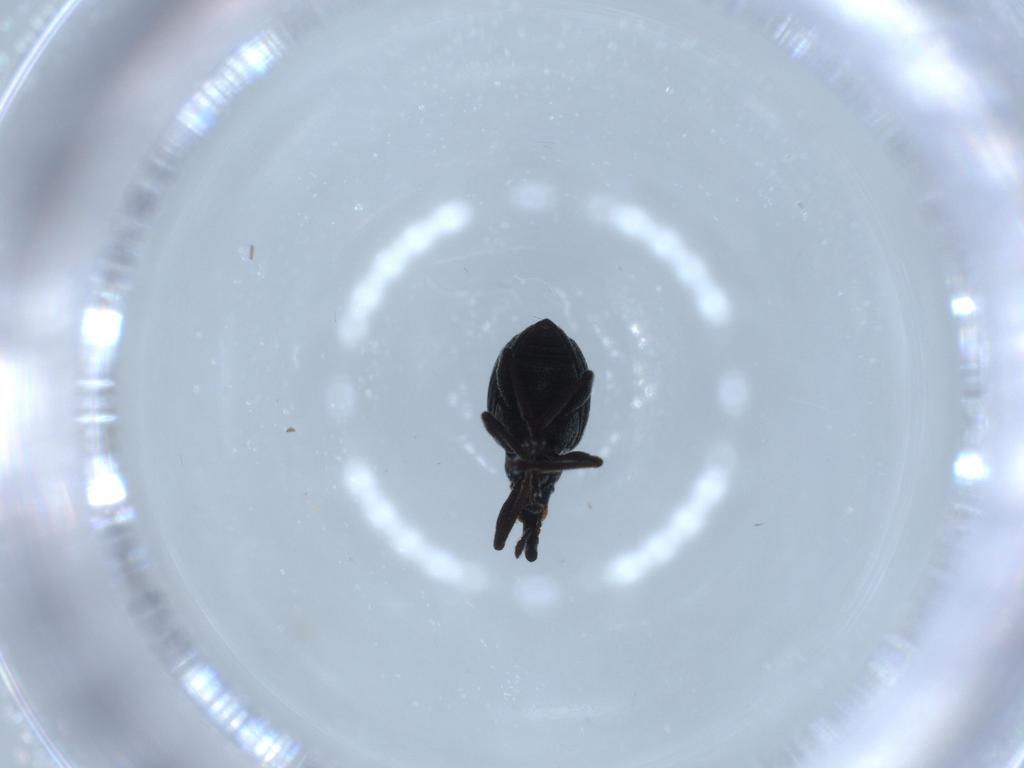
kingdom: Animalia
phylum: Arthropoda
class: Insecta
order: Coleoptera
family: Brentidae
